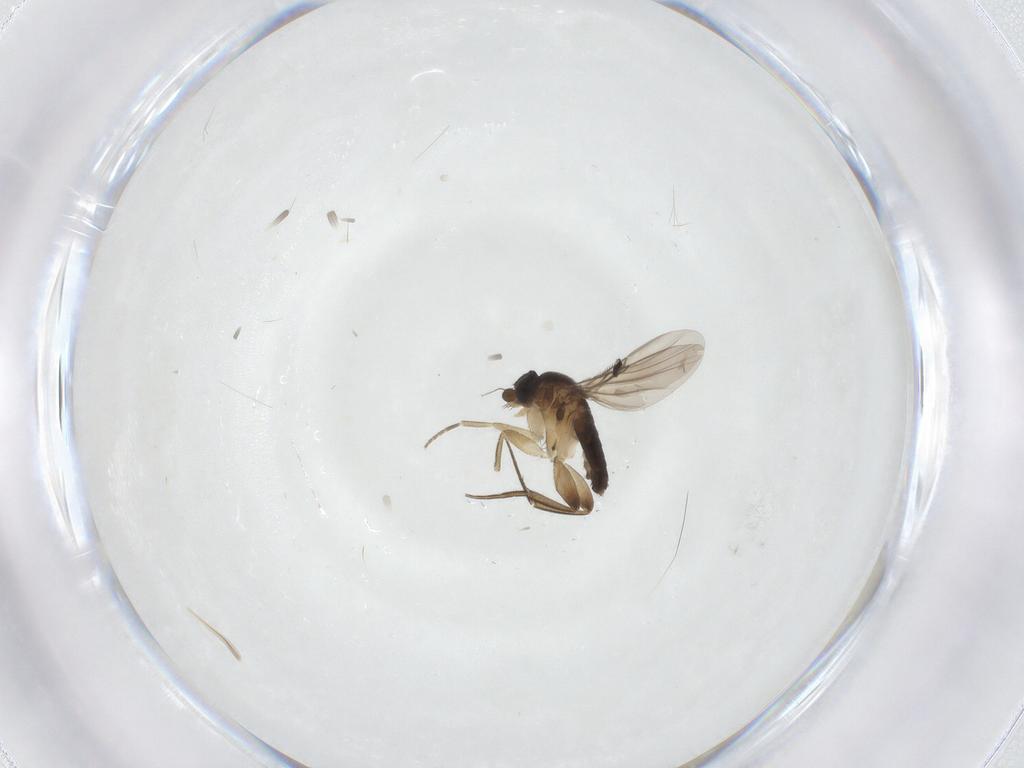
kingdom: Animalia
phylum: Arthropoda
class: Insecta
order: Diptera
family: Phoridae
